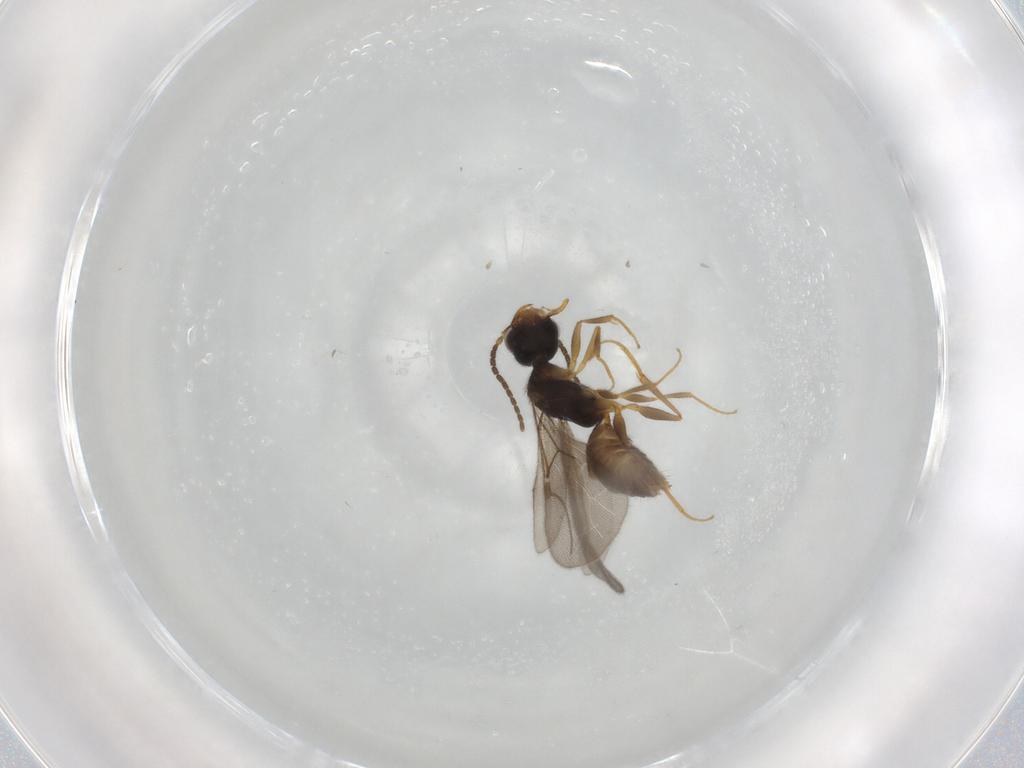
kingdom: Animalia
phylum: Arthropoda
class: Insecta
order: Hymenoptera
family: Bethylidae
